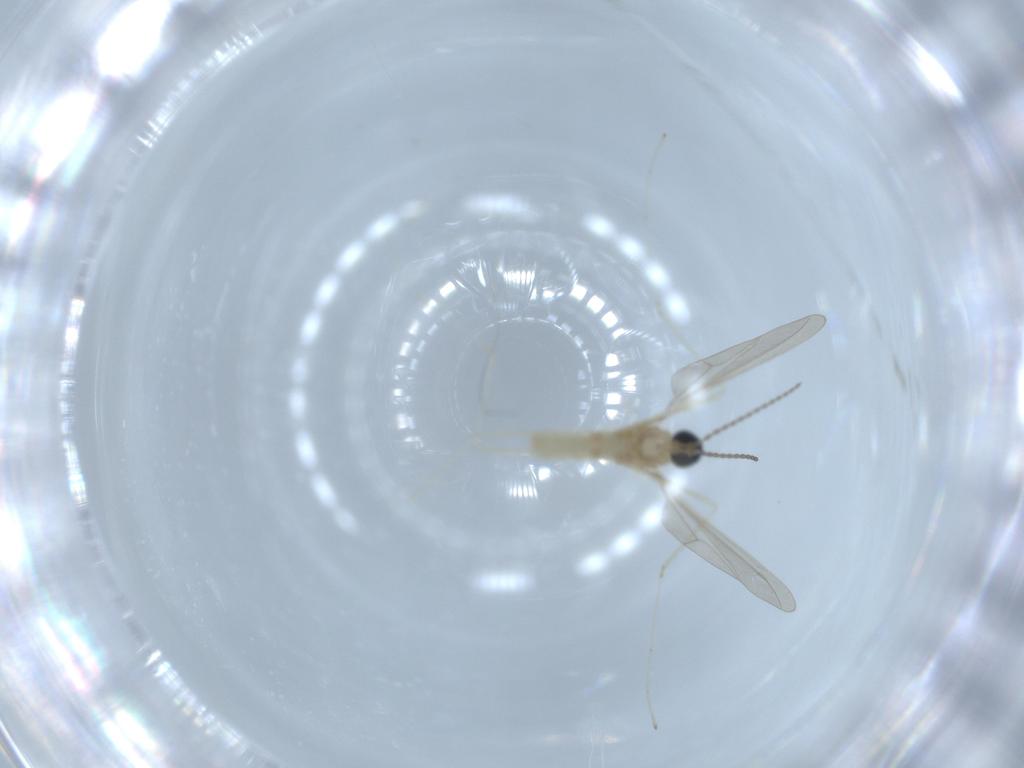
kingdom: Animalia
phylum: Arthropoda
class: Insecta
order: Diptera
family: Cecidomyiidae
